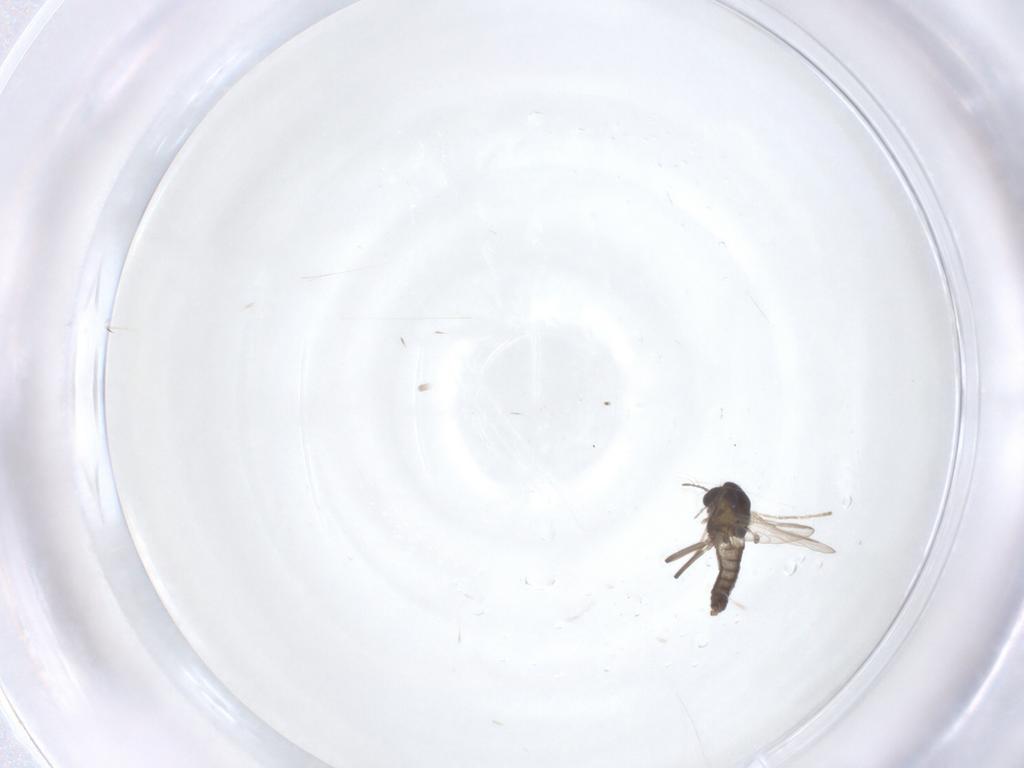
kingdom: Animalia
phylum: Arthropoda
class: Insecta
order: Diptera
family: Chironomidae
